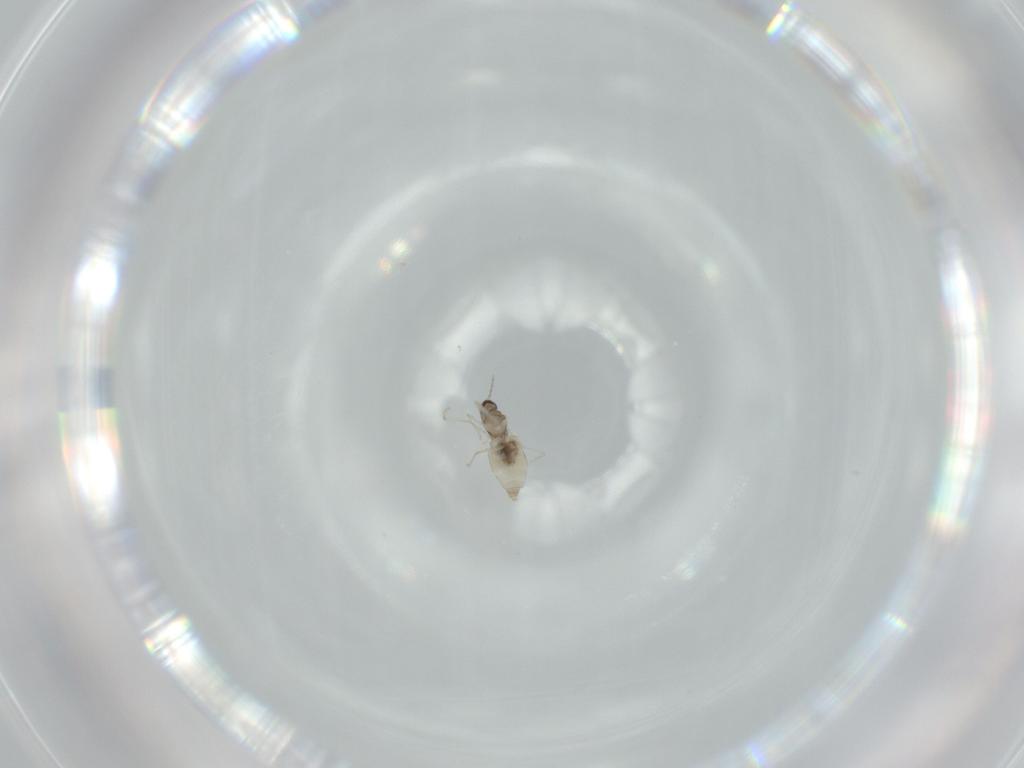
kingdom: Animalia
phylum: Arthropoda
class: Insecta
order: Diptera
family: Cecidomyiidae
